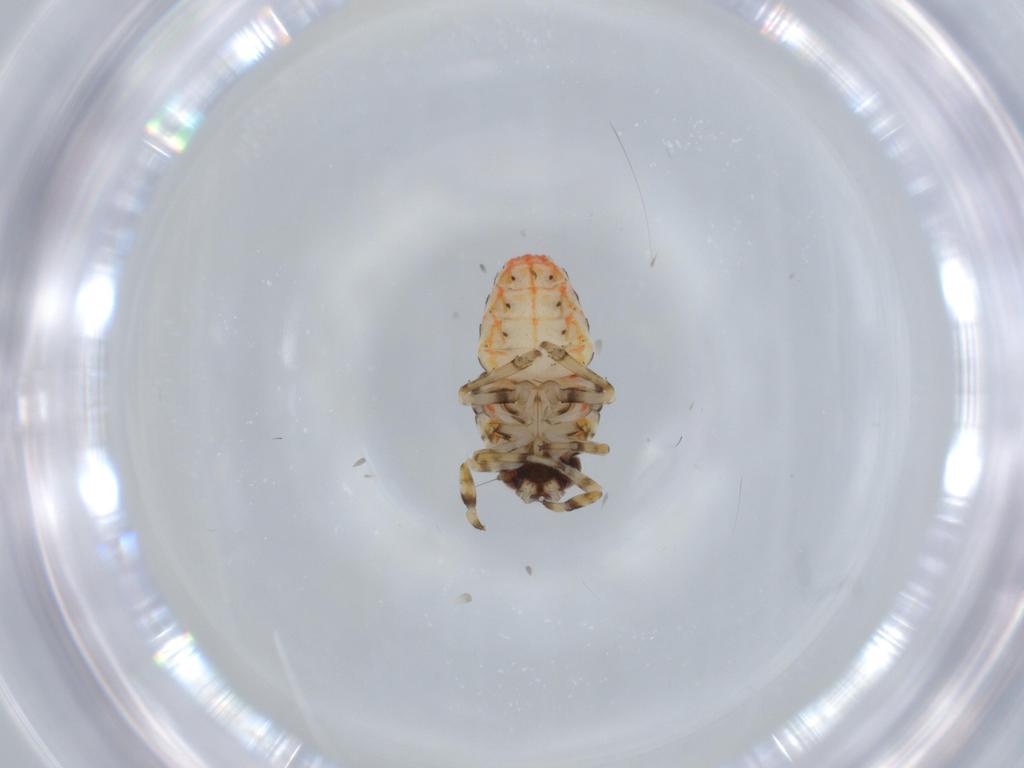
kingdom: Animalia
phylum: Arthropoda
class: Insecta
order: Hemiptera
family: Issidae
